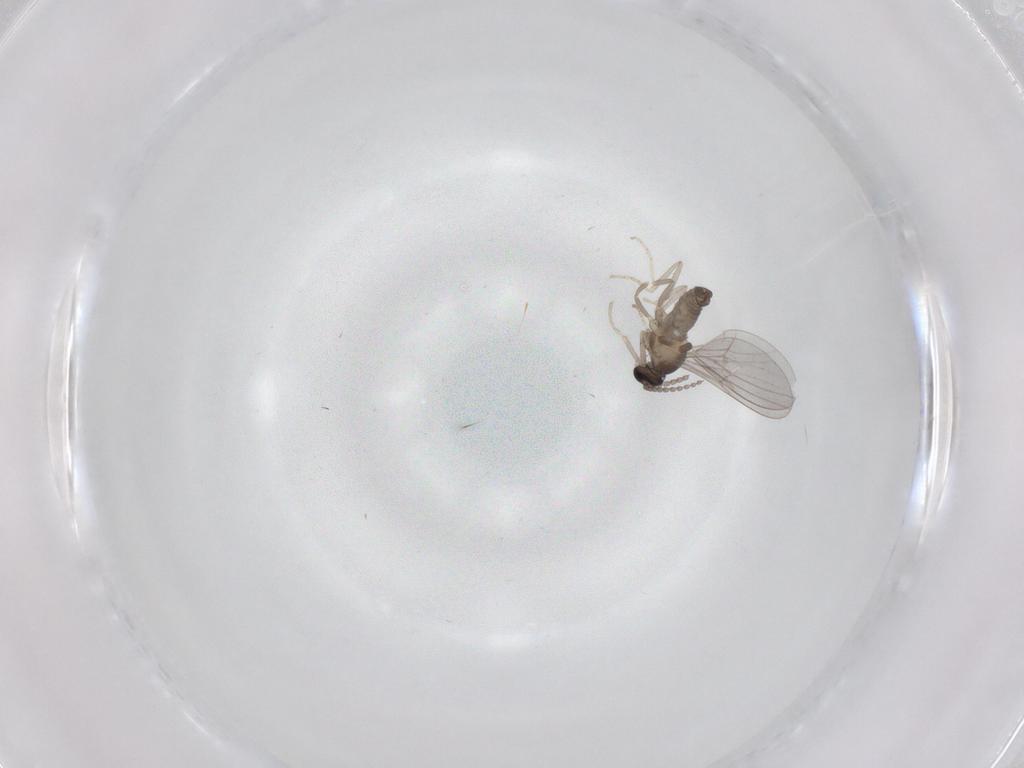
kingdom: Animalia
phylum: Arthropoda
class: Insecta
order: Diptera
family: Cecidomyiidae
